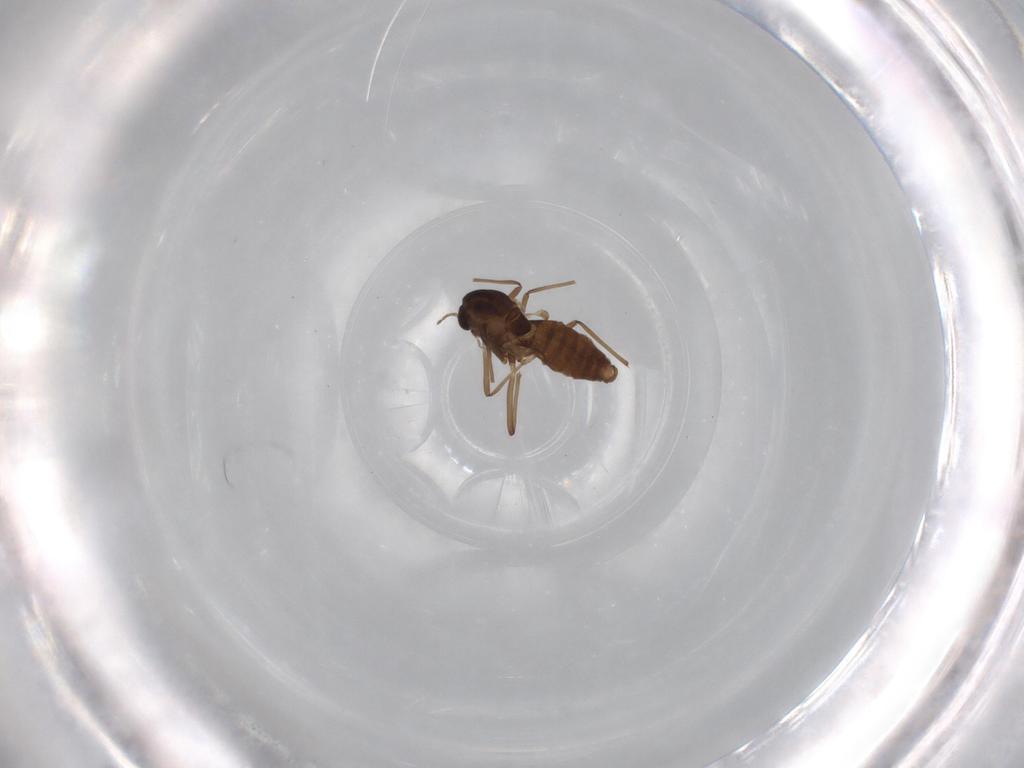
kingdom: Animalia
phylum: Arthropoda
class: Insecta
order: Diptera
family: Chironomidae
